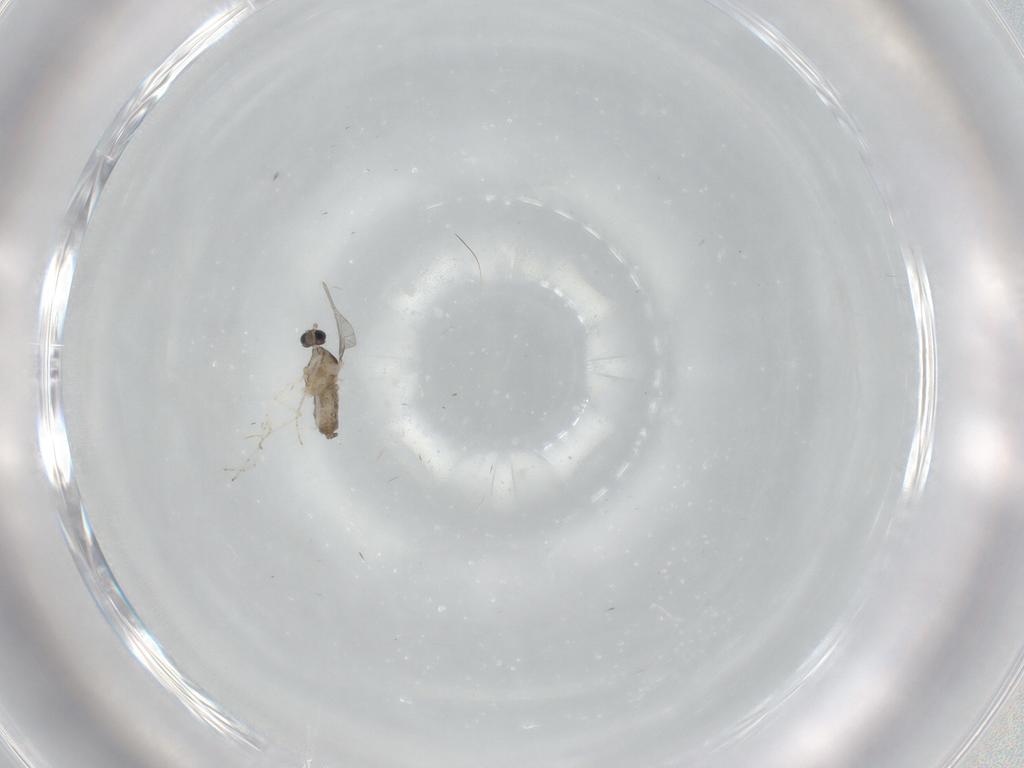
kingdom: Animalia
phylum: Arthropoda
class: Insecta
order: Diptera
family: Cecidomyiidae
